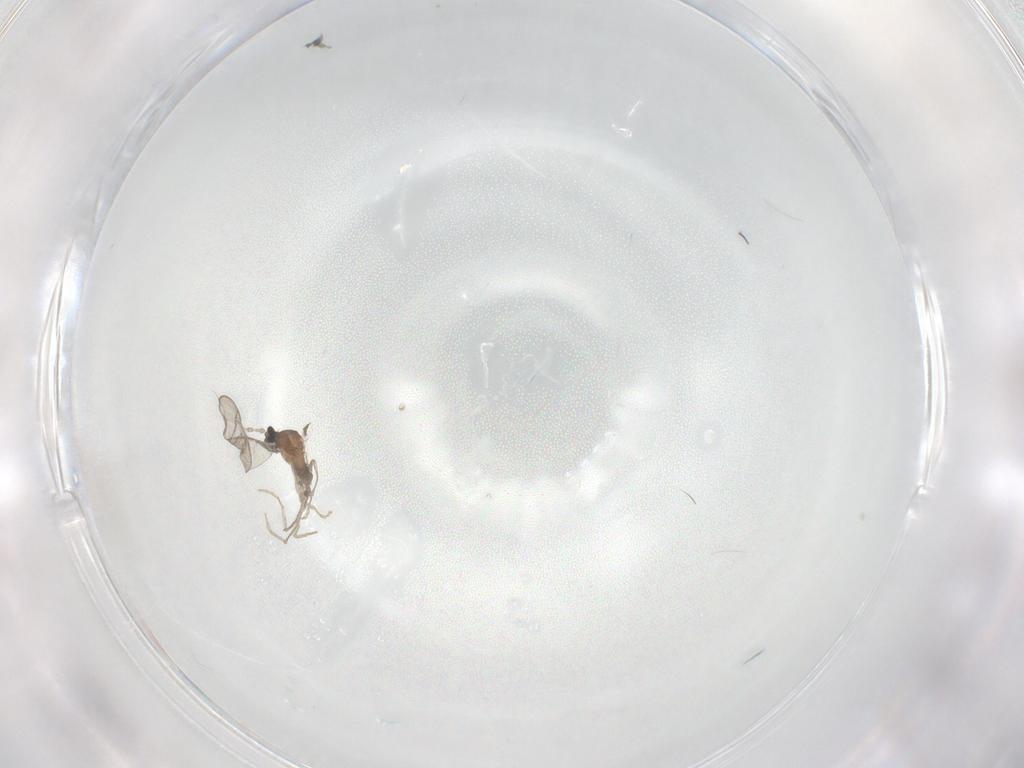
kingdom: Animalia
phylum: Arthropoda
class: Insecta
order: Diptera
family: Cecidomyiidae
